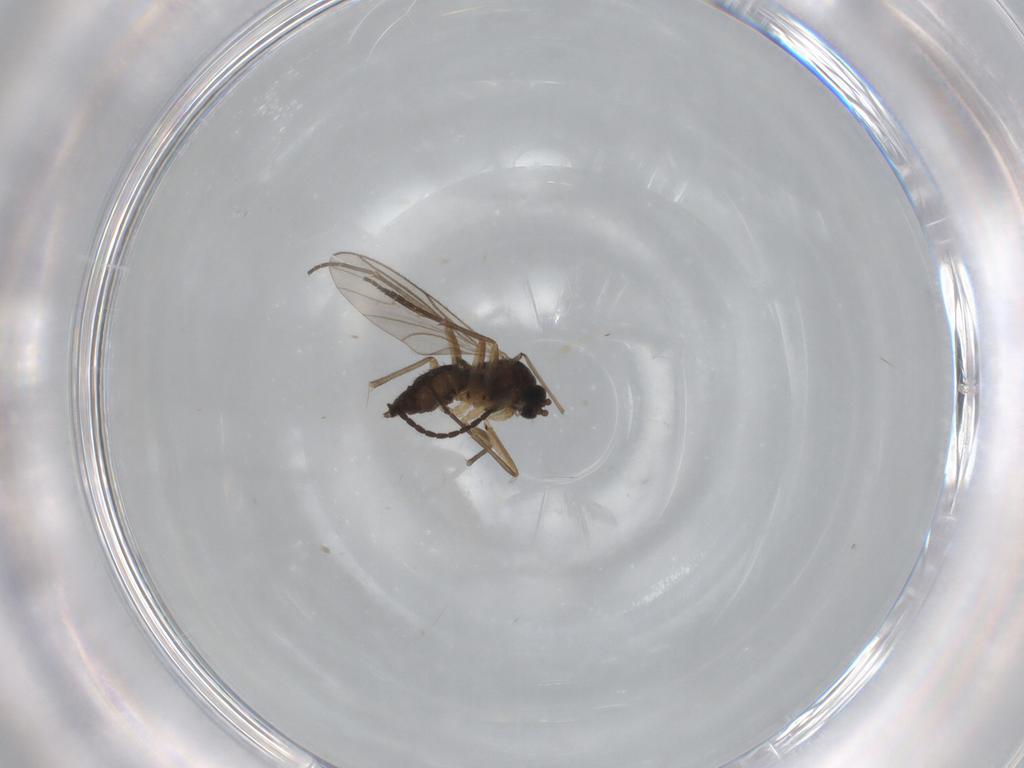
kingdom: Animalia
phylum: Arthropoda
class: Insecta
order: Diptera
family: Sciaridae
